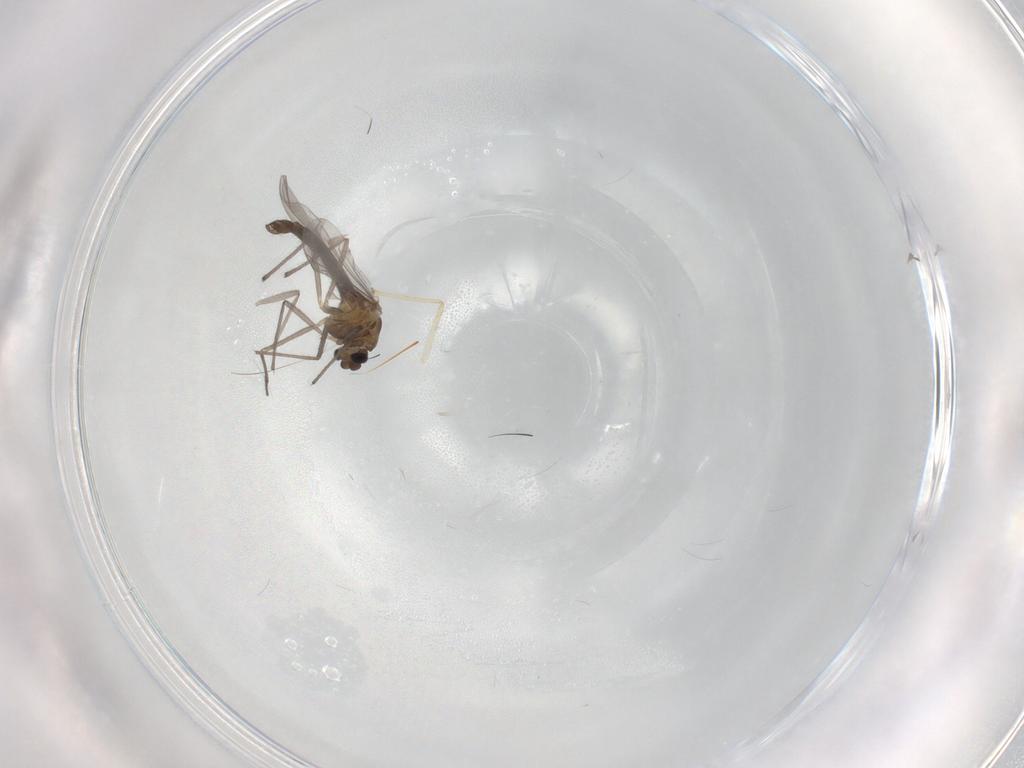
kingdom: Animalia
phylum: Arthropoda
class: Insecta
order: Diptera
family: Chironomidae
